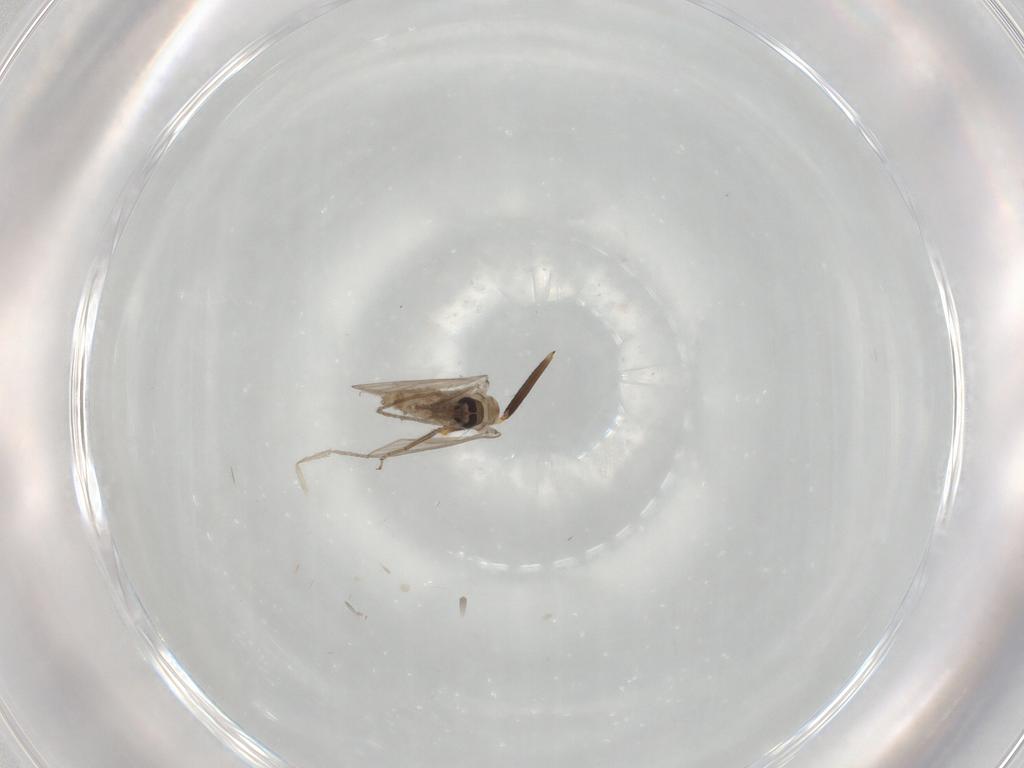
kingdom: Animalia
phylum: Arthropoda
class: Insecta
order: Diptera
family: Psychodidae
